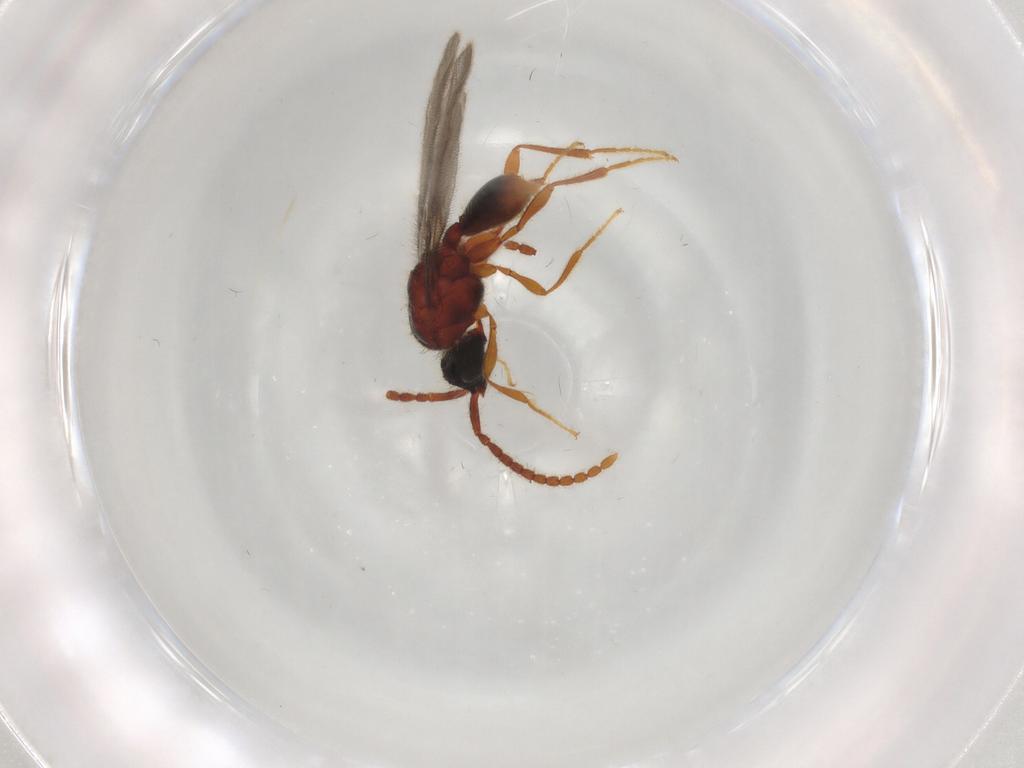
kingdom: Animalia
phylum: Arthropoda
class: Insecta
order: Hymenoptera
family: Diapriidae
